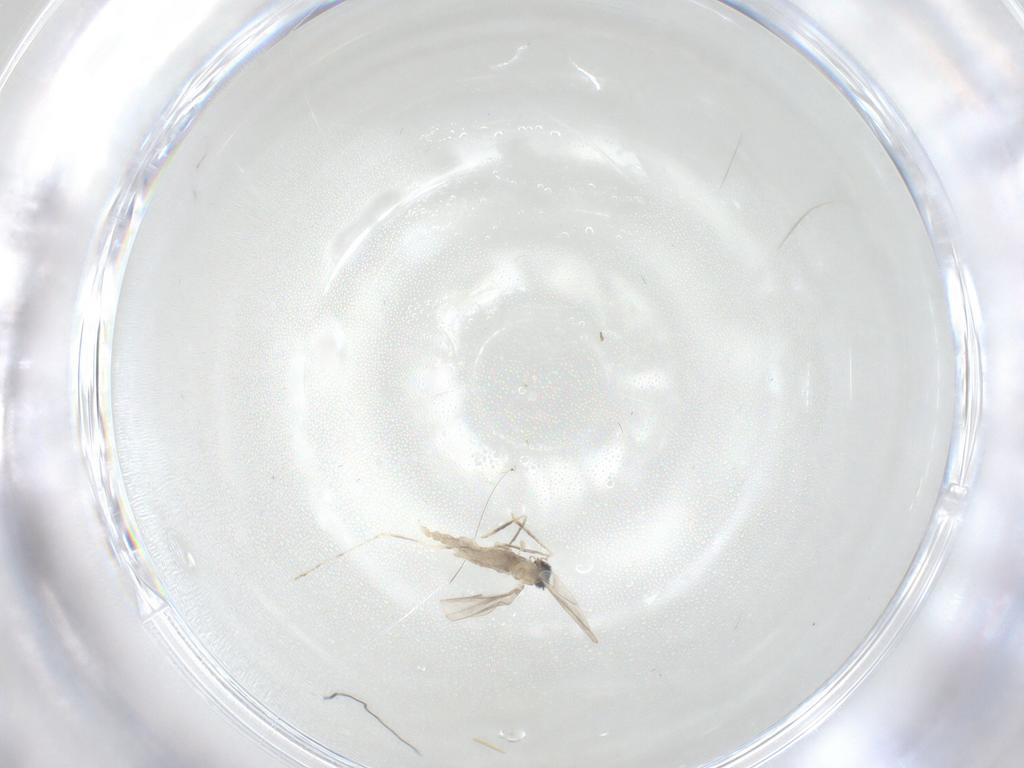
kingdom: Animalia
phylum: Arthropoda
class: Insecta
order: Diptera
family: Cecidomyiidae
